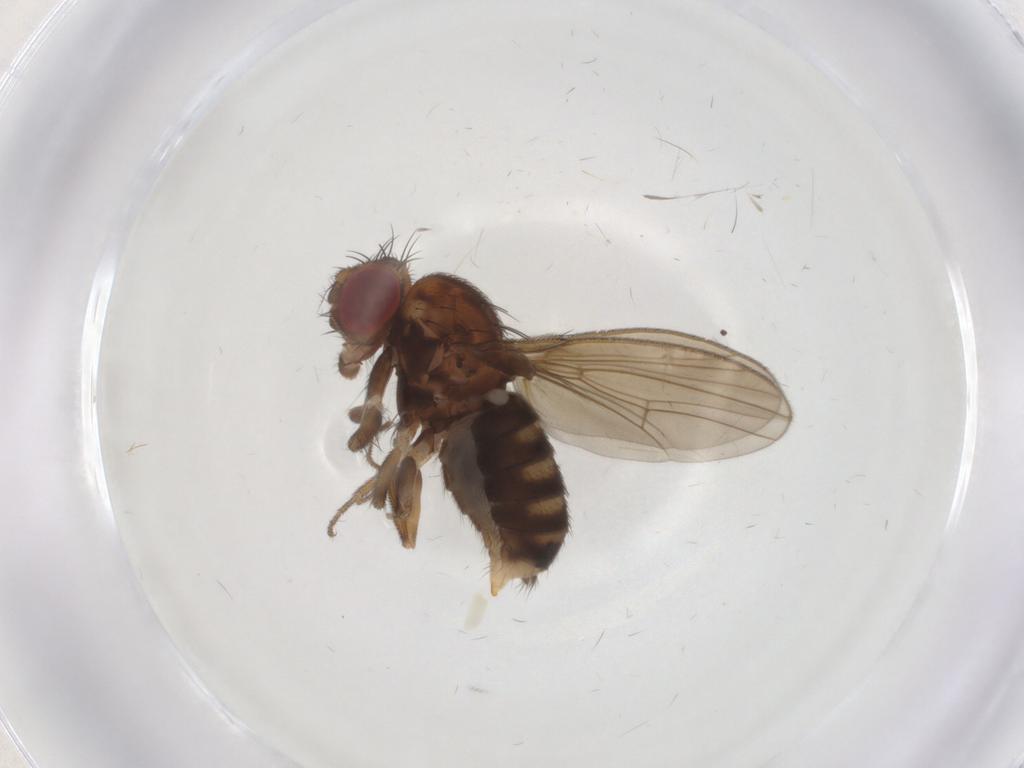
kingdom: Animalia
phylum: Arthropoda
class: Insecta
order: Diptera
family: Drosophilidae
